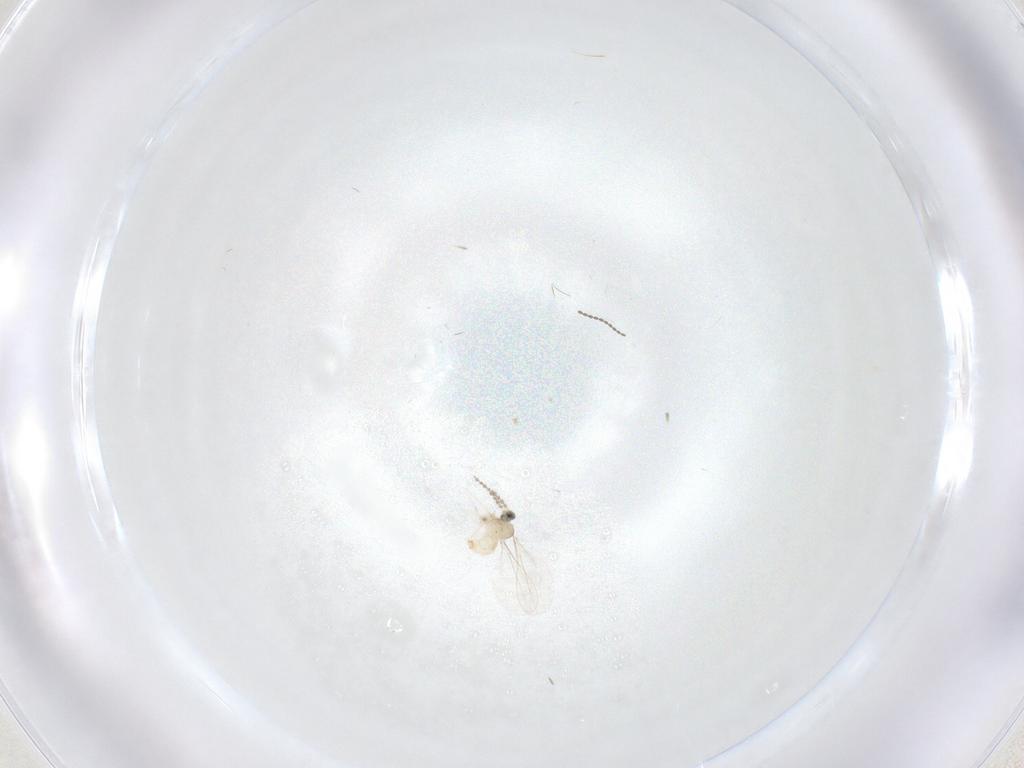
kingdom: Animalia
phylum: Arthropoda
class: Insecta
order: Diptera
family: Cecidomyiidae
